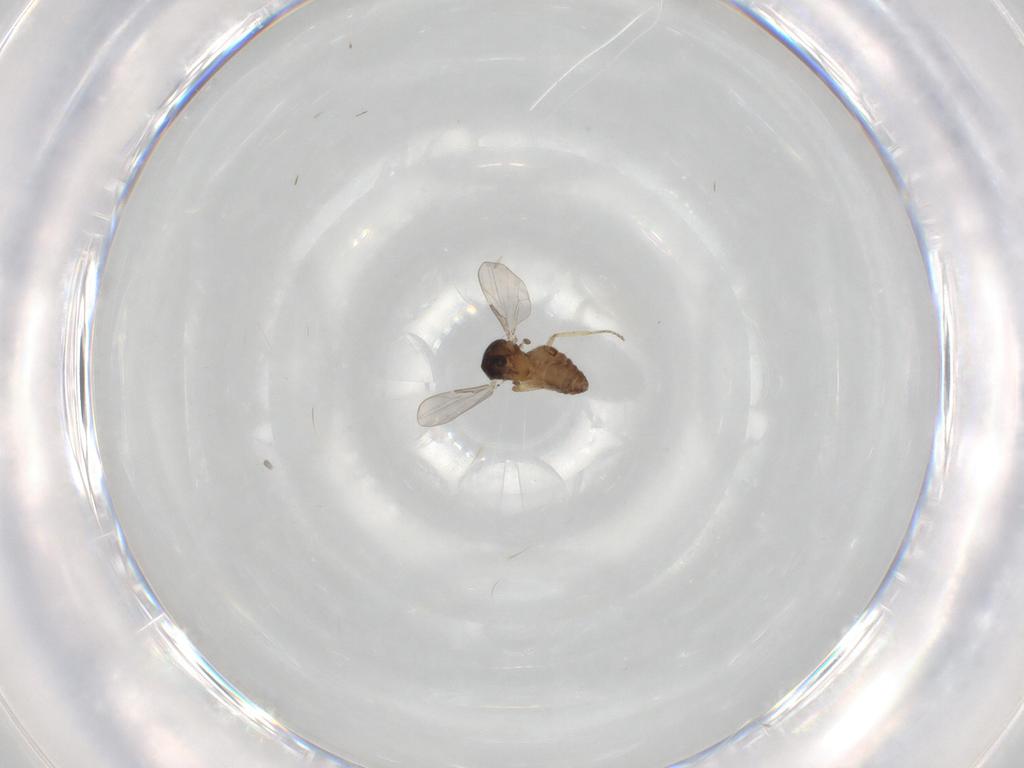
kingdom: Animalia
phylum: Arthropoda
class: Insecta
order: Diptera
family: Ceratopogonidae
